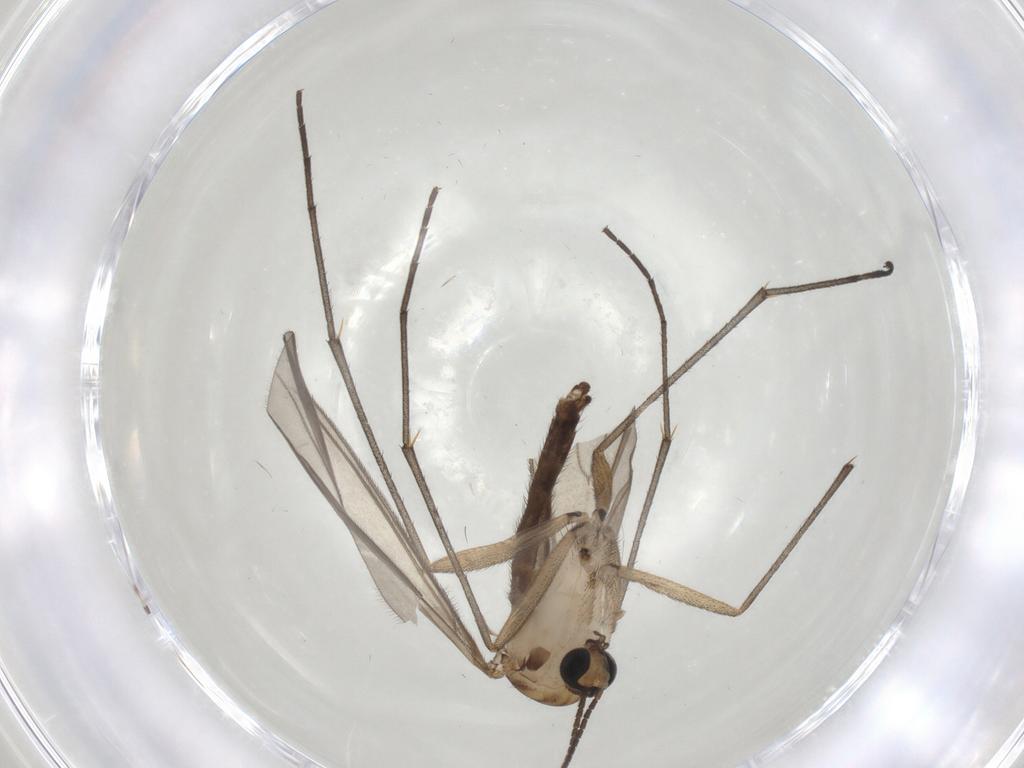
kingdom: Animalia
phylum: Arthropoda
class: Insecta
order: Diptera
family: Sciaridae
